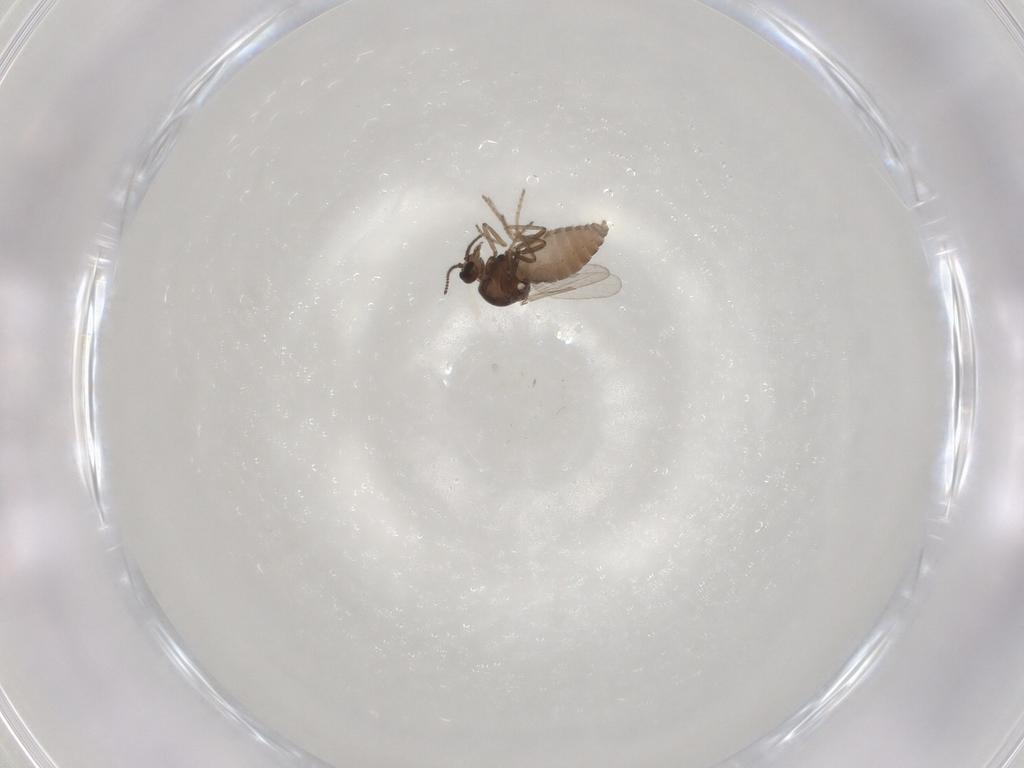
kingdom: Animalia
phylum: Arthropoda
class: Insecta
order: Diptera
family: Ceratopogonidae
